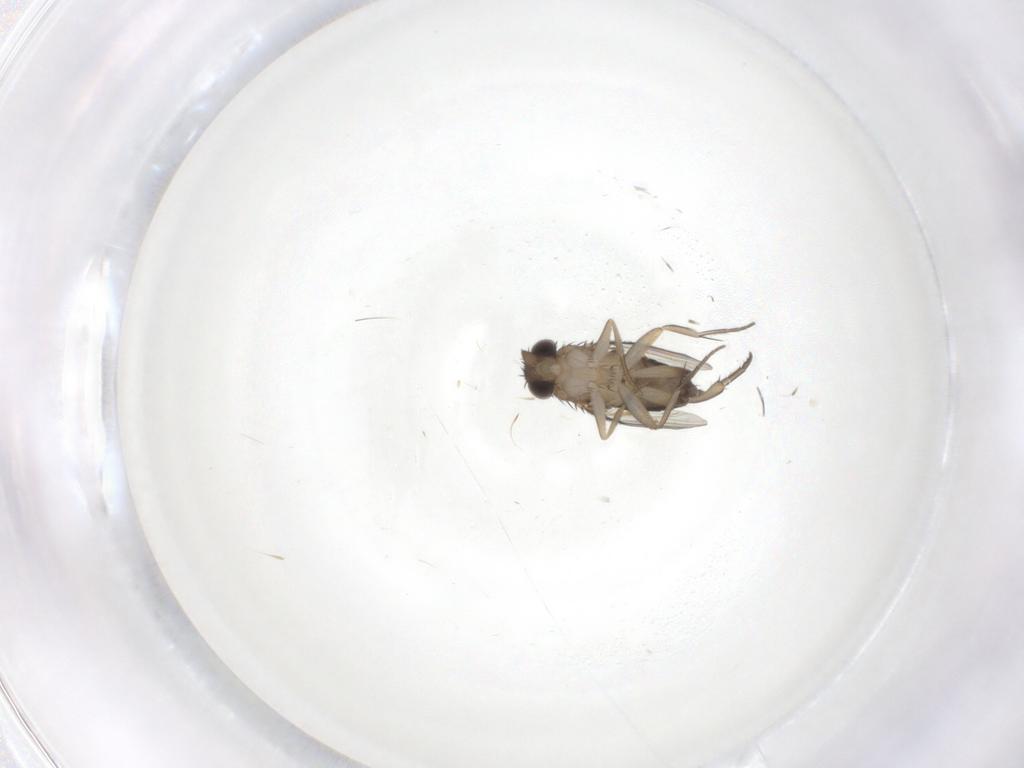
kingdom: Animalia
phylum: Arthropoda
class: Insecta
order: Diptera
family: Phoridae
